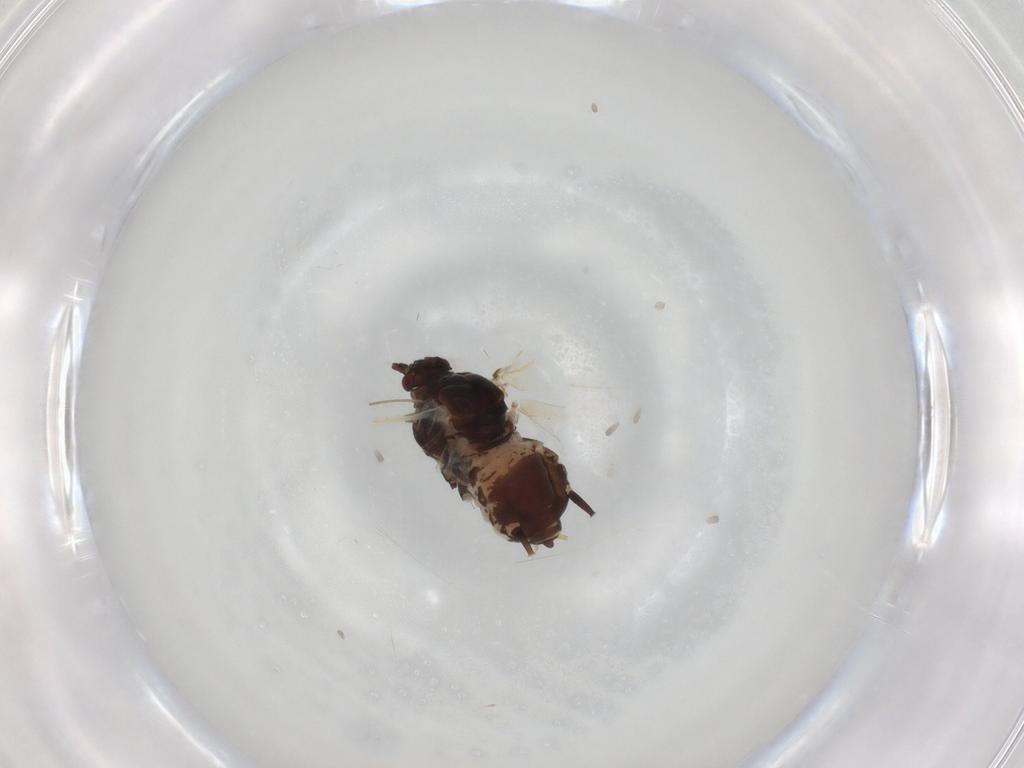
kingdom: Animalia
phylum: Arthropoda
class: Insecta
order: Hemiptera
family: Aphididae
